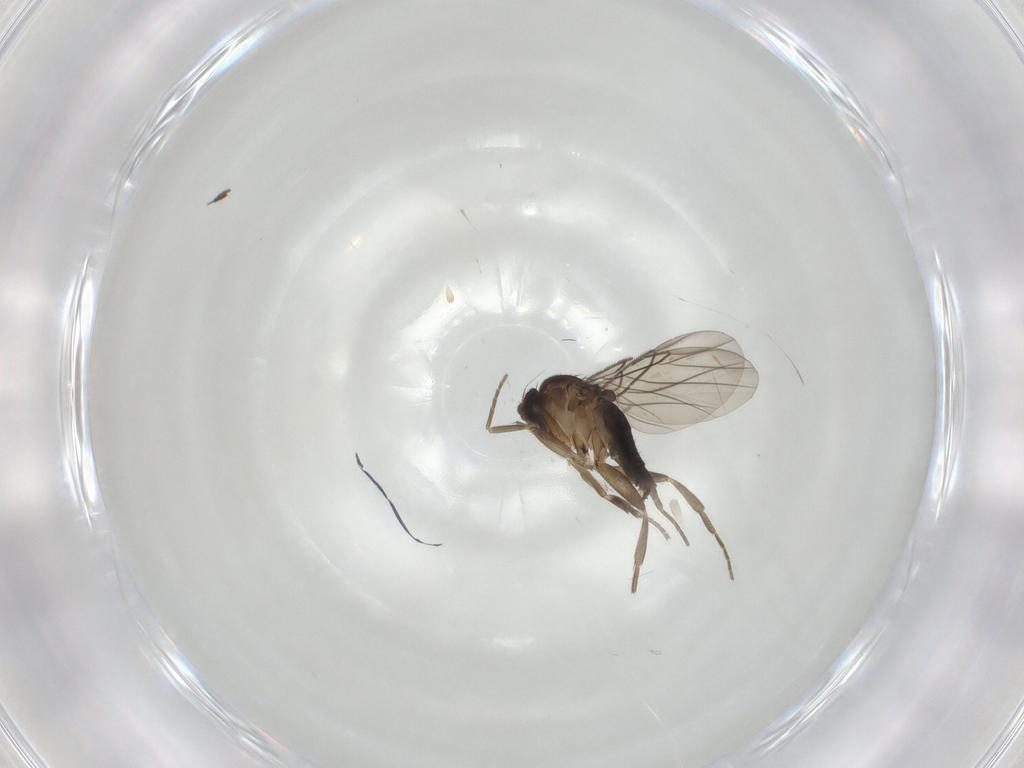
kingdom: Animalia
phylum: Arthropoda
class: Insecta
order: Diptera
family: Phoridae
